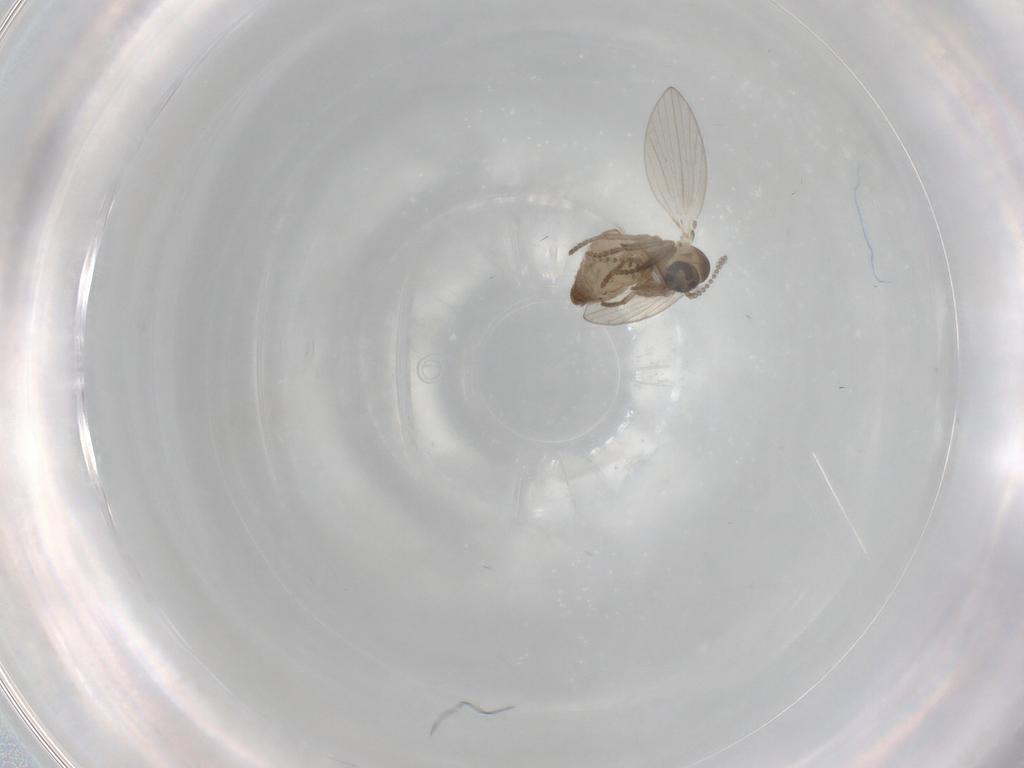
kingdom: Animalia
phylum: Arthropoda
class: Insecta
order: Diptera
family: Psychodidae
